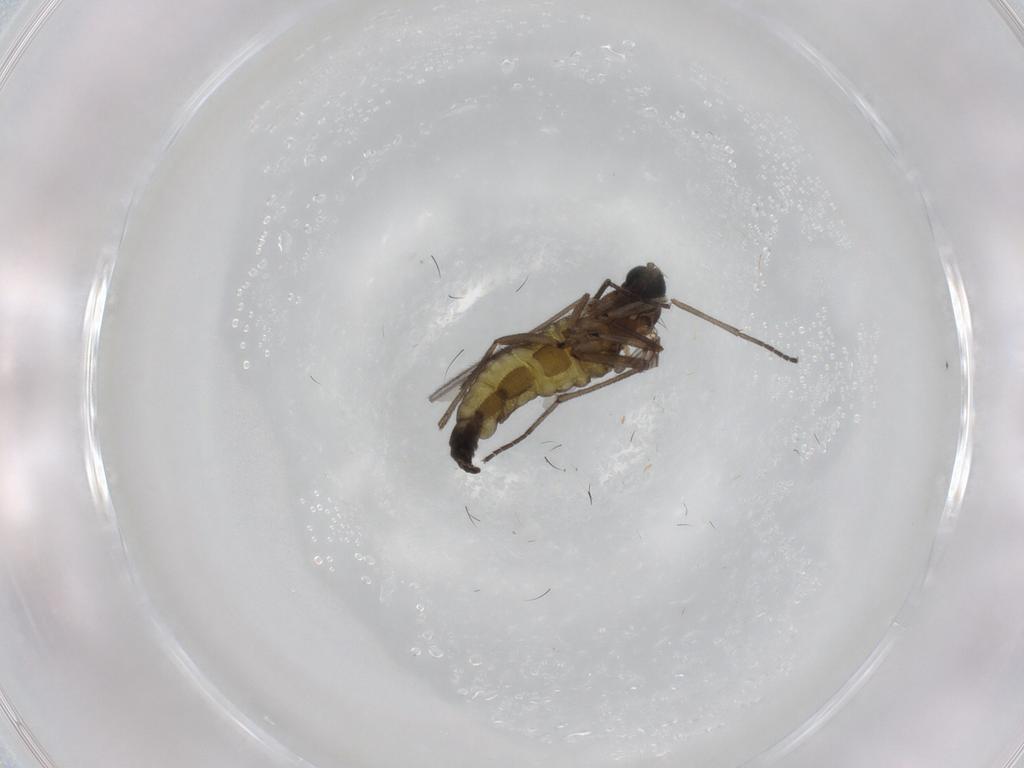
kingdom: Animalia
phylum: Arthropoda
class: Insecta
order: Diptera
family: Sciaridae
